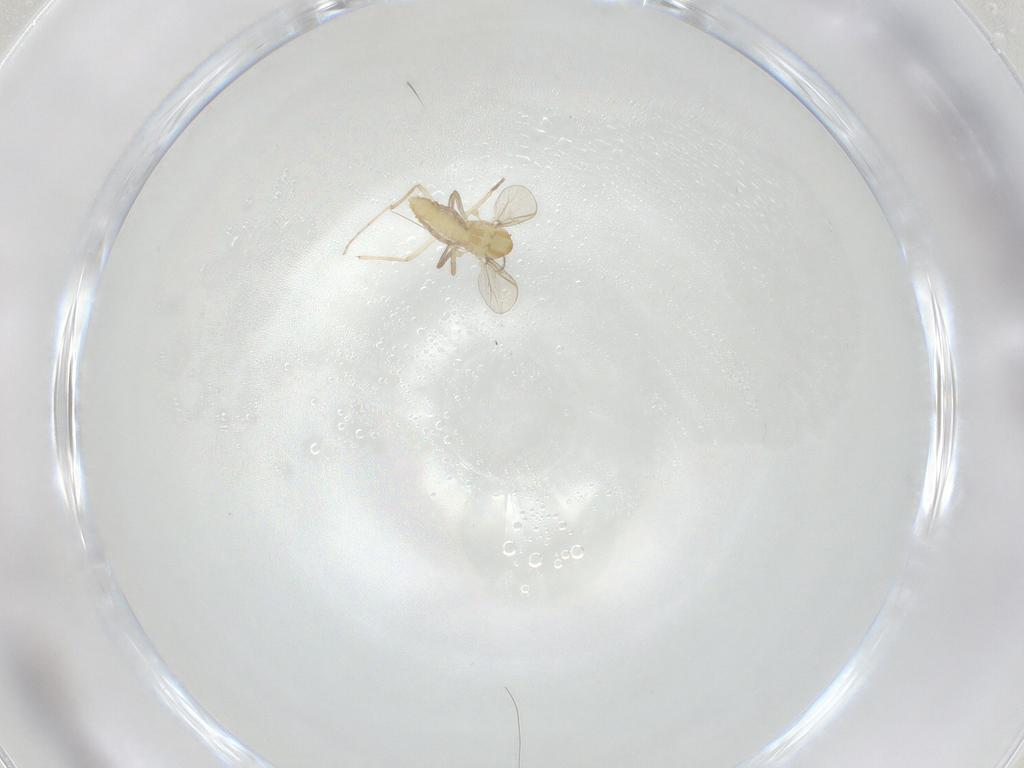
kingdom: Animalia
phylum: Arthropoda
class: Insecta
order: Diptera
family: Chironomidae
